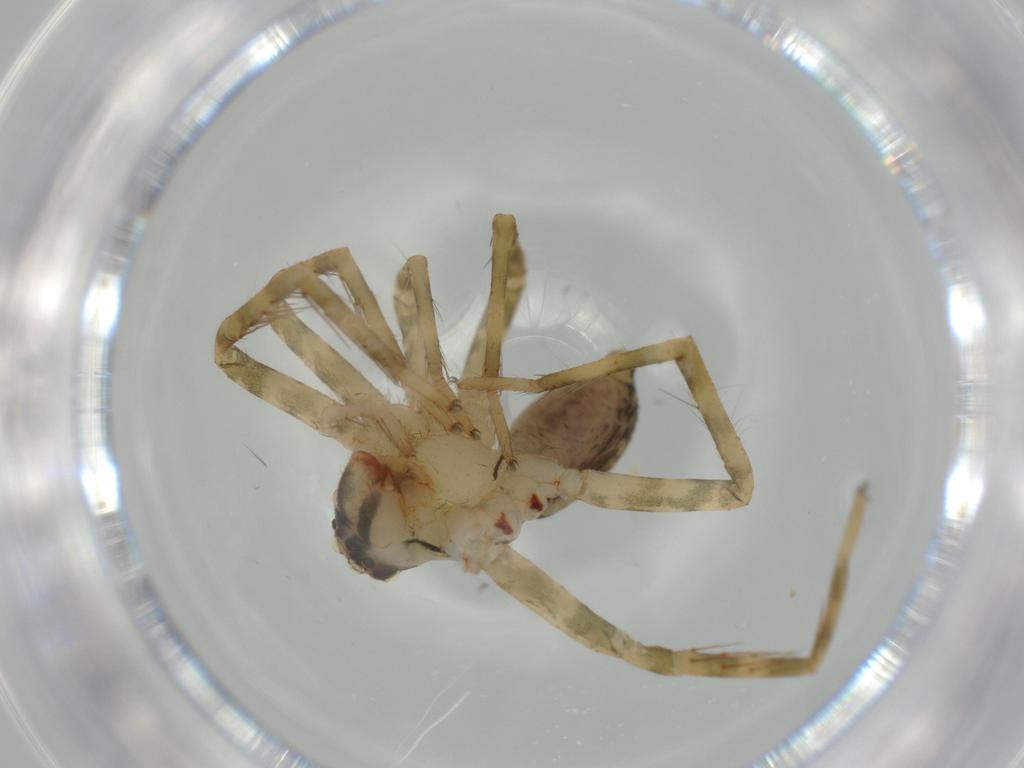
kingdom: Animalia
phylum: Arthropoda
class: Arachnida
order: Araneae
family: Trechaleidae
